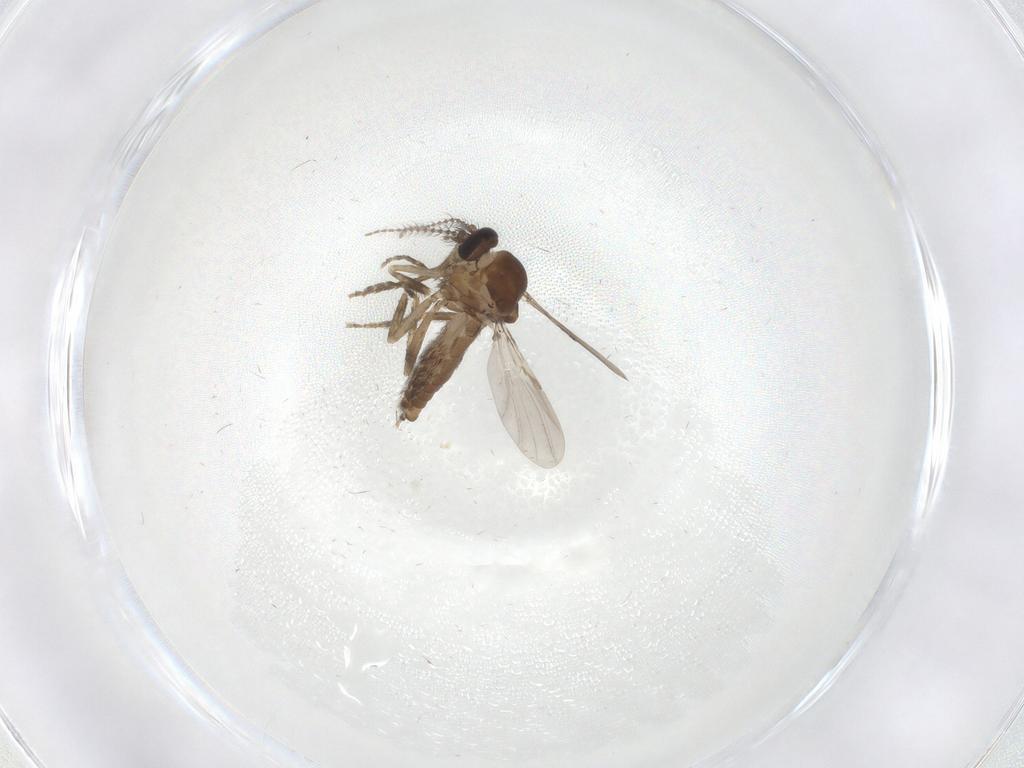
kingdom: Animalia
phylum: Arthropoda
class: Insecta
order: Diptera
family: Ceratopogonidae
